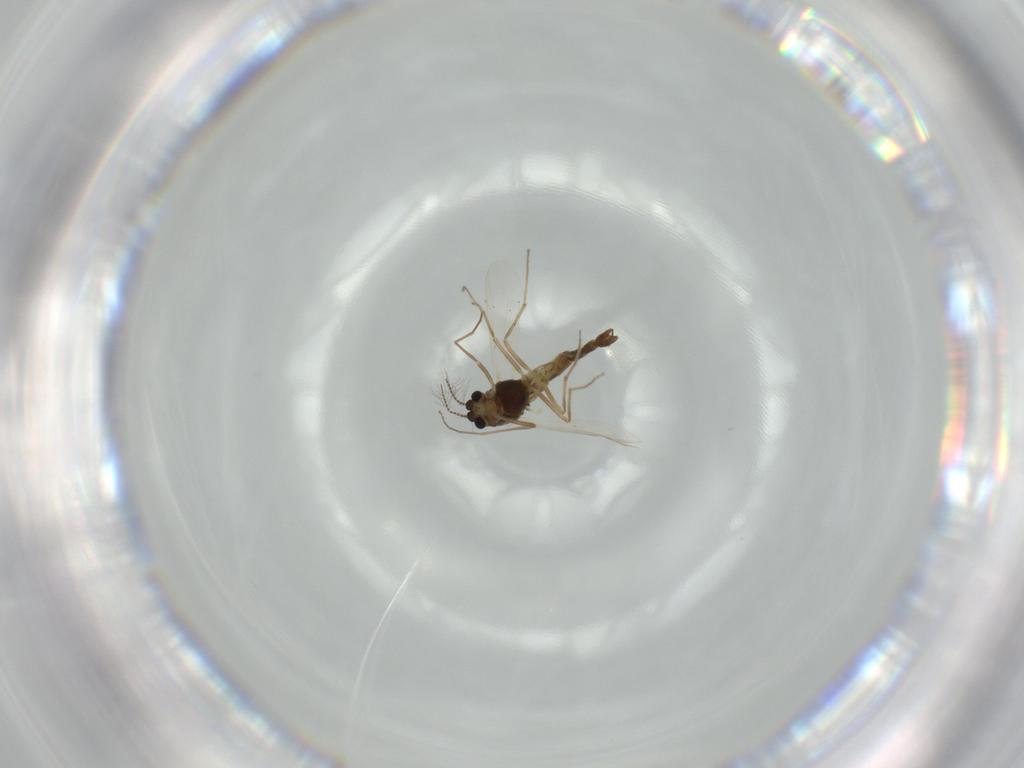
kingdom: Animalia
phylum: Arthropoda
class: Insecta
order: Diptera
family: Chironomidae
